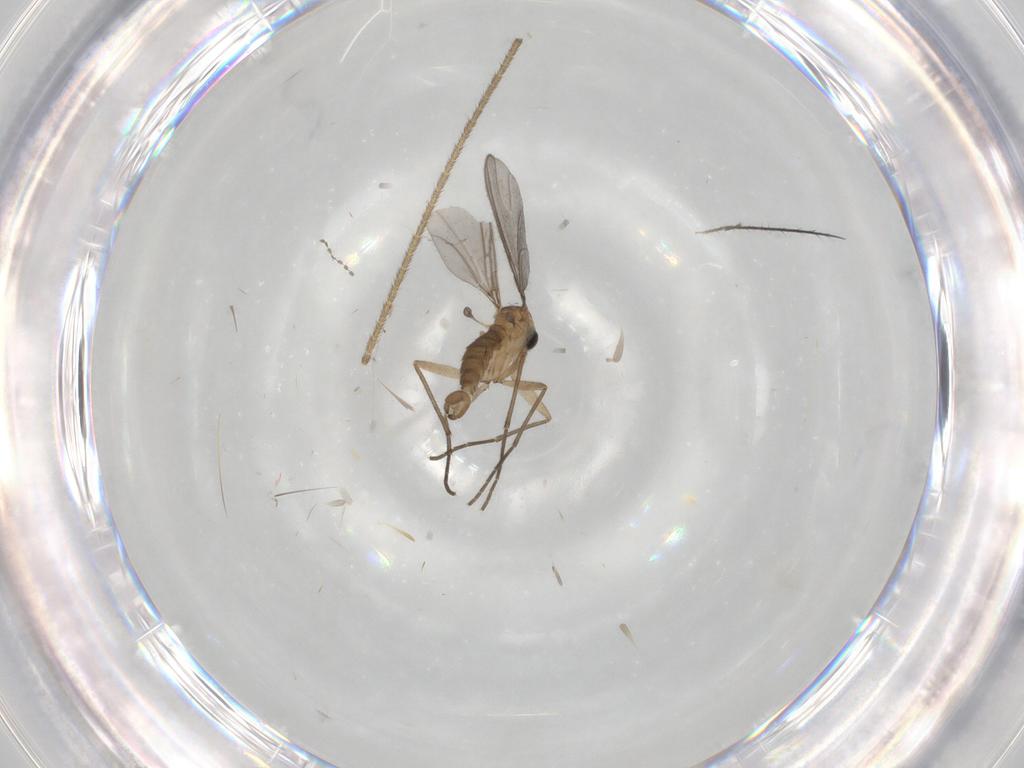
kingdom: Animalia
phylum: Arthropoda
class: Insecta
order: Diptera
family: Cecidomyiidae
